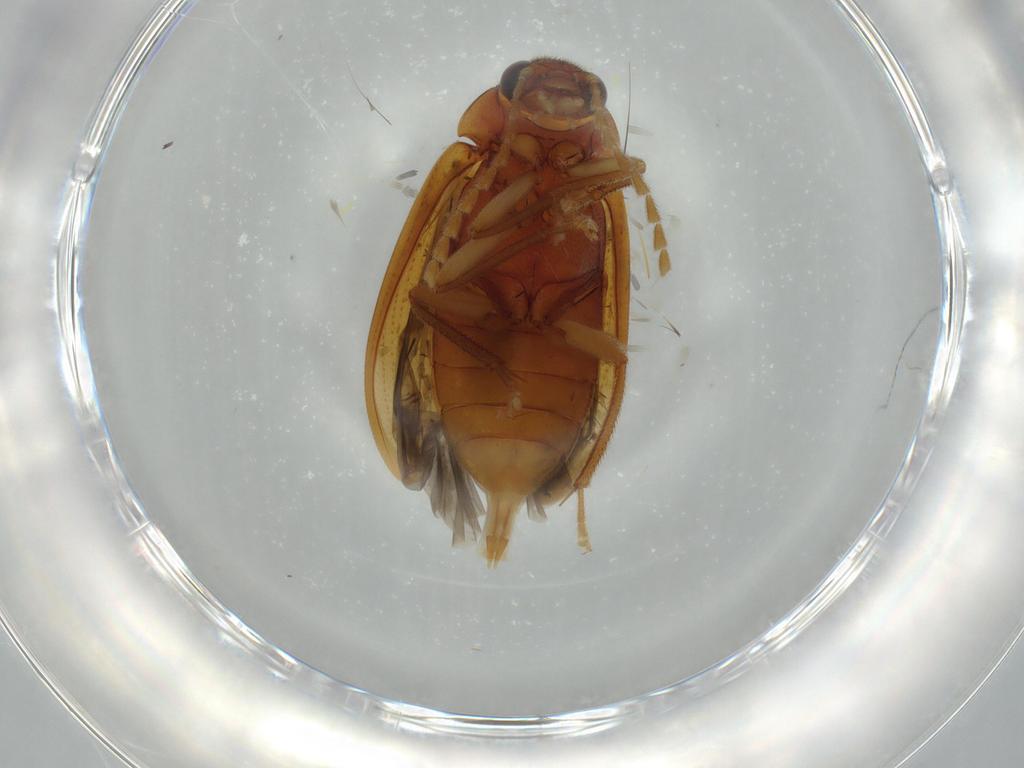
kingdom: Animalia
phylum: Arthropoda
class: Insecta
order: Coleoptera
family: Ptilodactylidae
